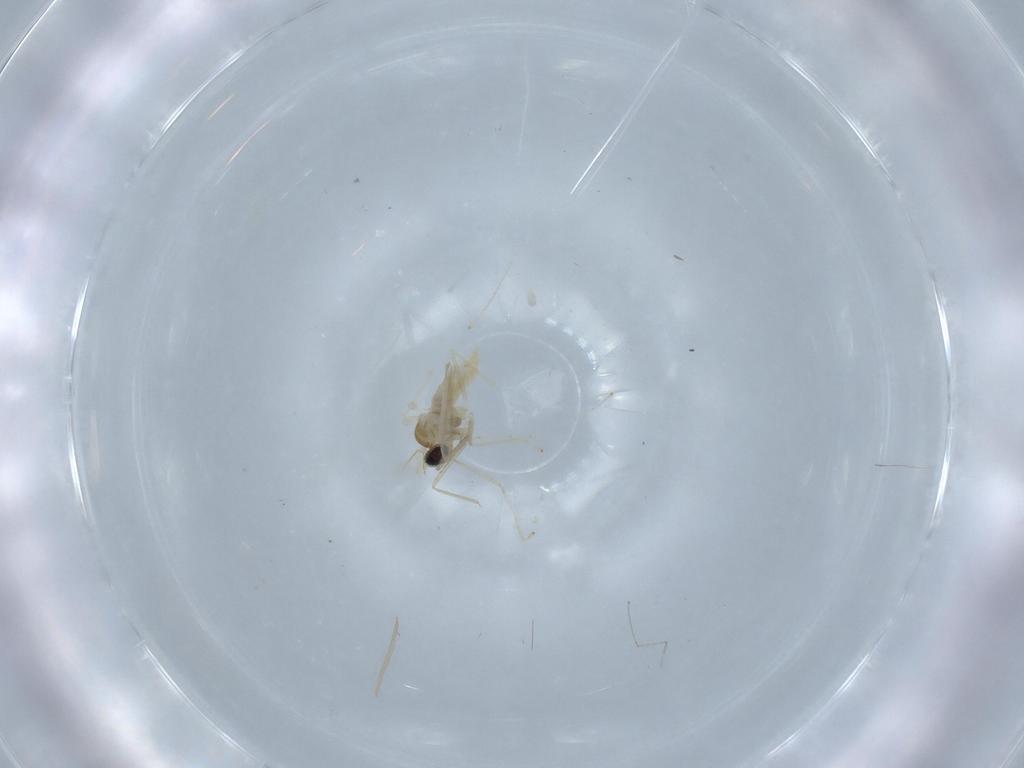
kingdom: Animalia
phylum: Arthropoda
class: Insecta
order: Diptera
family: Cecidomyiidae
